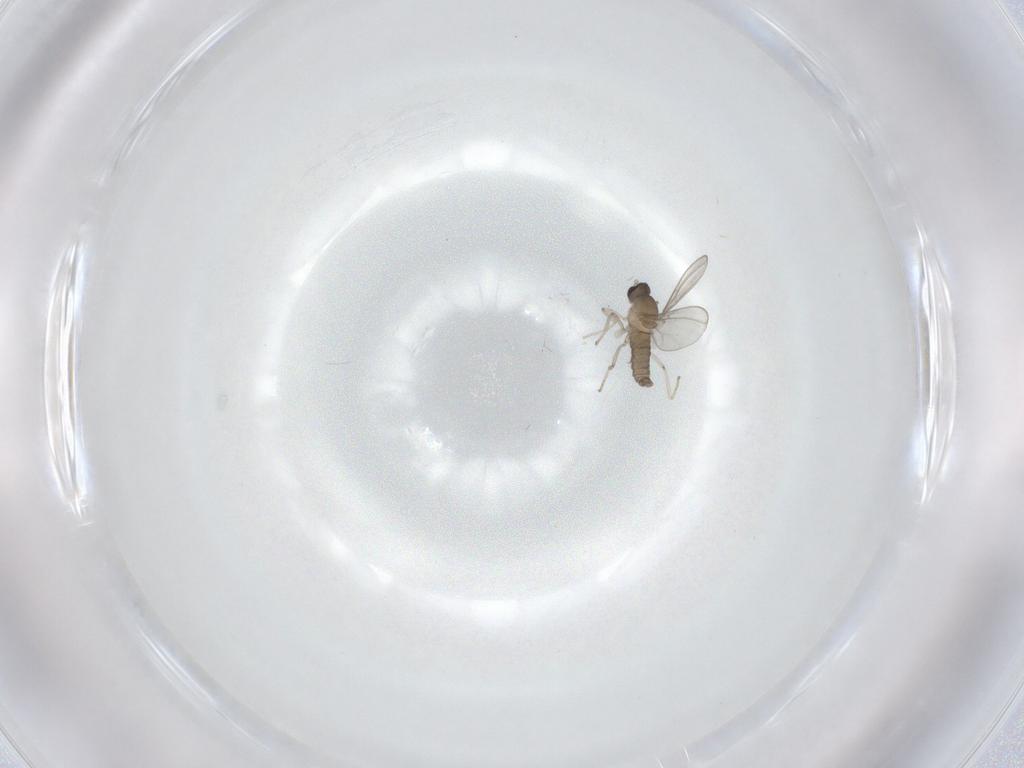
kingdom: Animalia
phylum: Arthropoda
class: Insecta
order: Diptera
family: Cecidomyiidae
